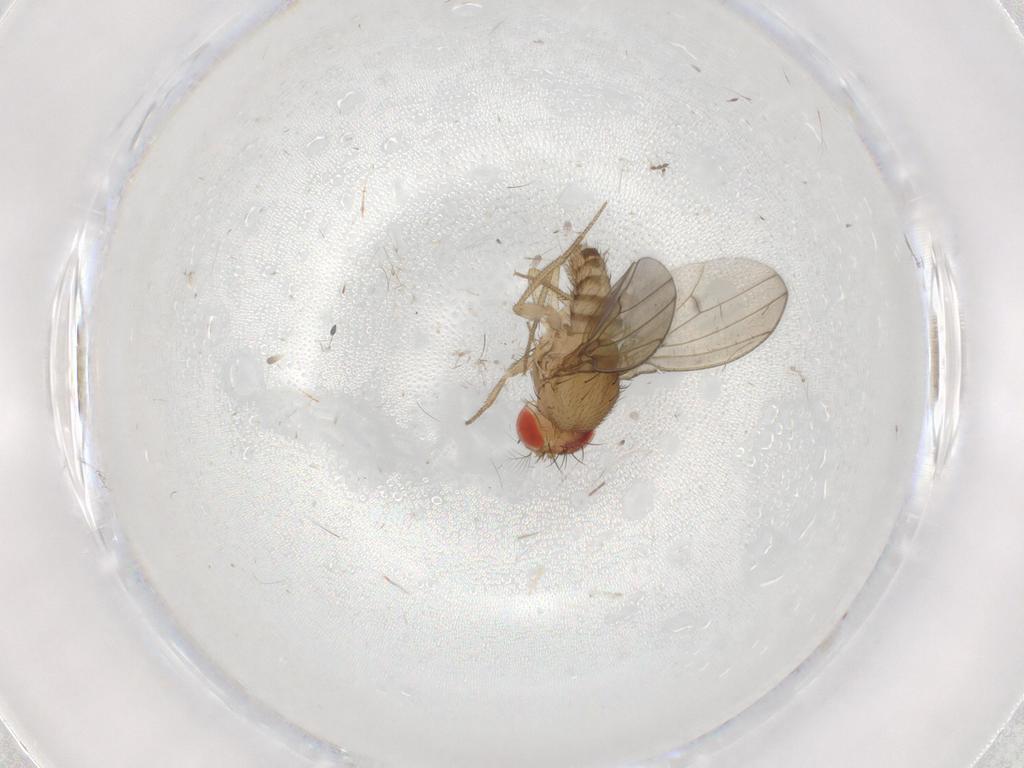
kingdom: Animalia
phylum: Arthropoda
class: Insecta
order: Diptera
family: Drosophilidae
